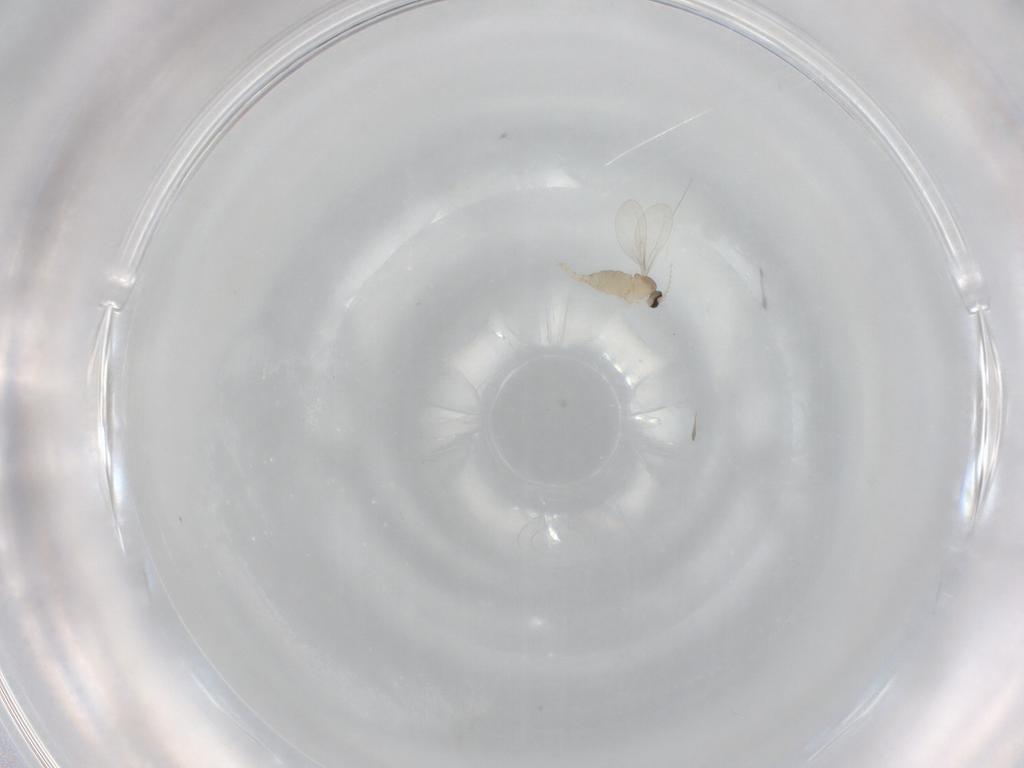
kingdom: Animalia
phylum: Arthropoda
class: Insecta
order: Diptera
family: Cecidomyiidae
